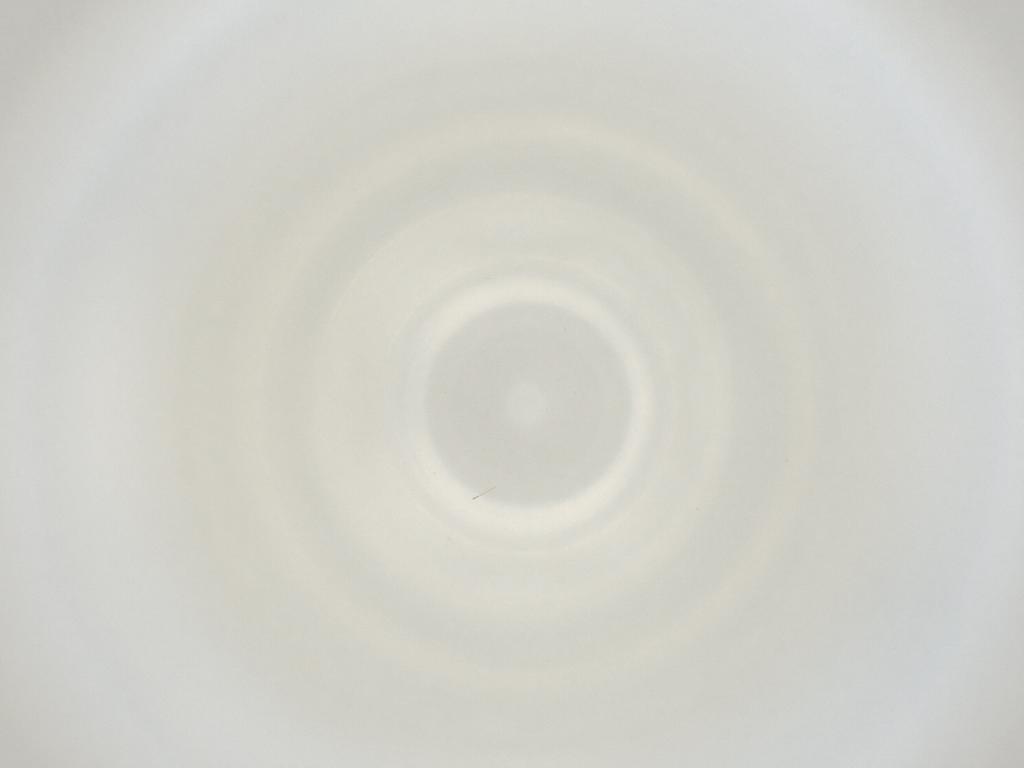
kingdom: Animalia
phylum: Arthropoda
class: Insecta
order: Diptera
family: Cecidomyiidae
